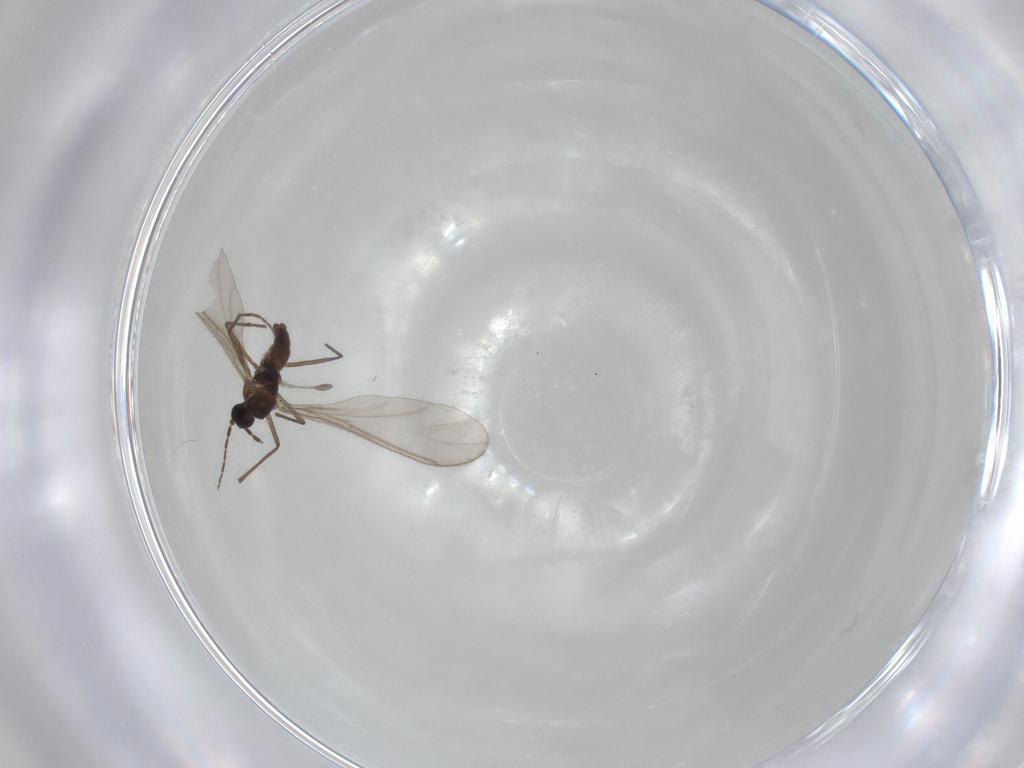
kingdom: Animalia
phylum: Arthropoda
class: Insecta
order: Diptera
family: Sciaridae
